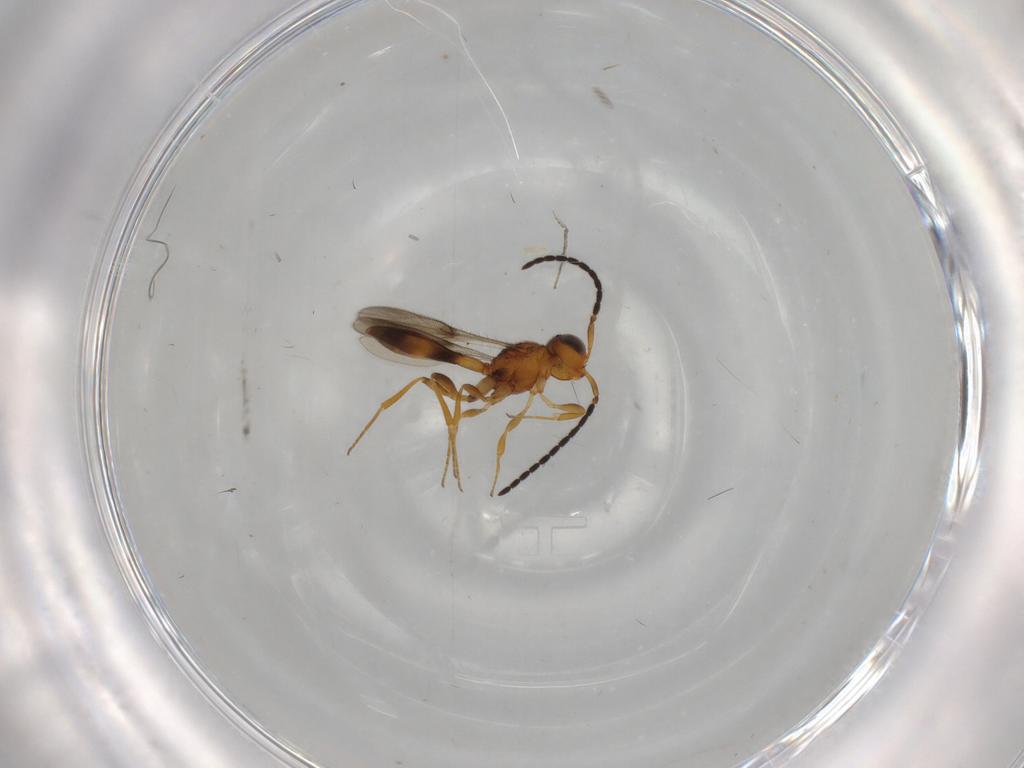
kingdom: Animalia
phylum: Arthropoda
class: Insecta
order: Hymenoptera
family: Scelionidae
